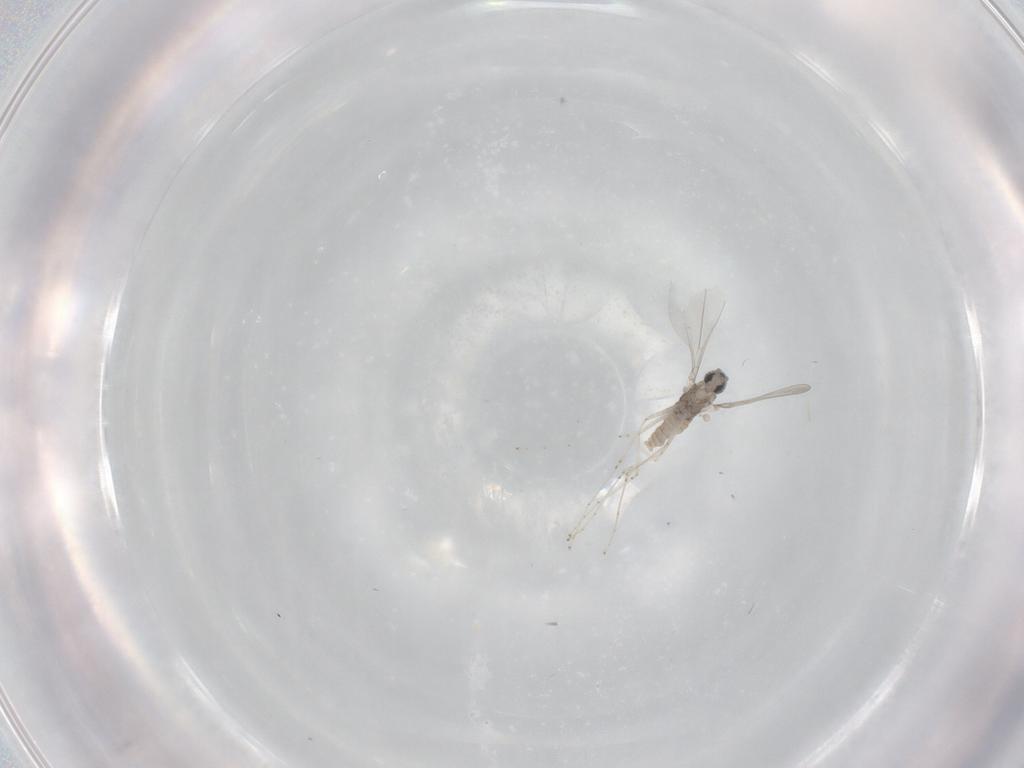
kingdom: Animalia
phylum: Arthropoda
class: Insecta
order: Diptera
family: Cecidomyiidae
